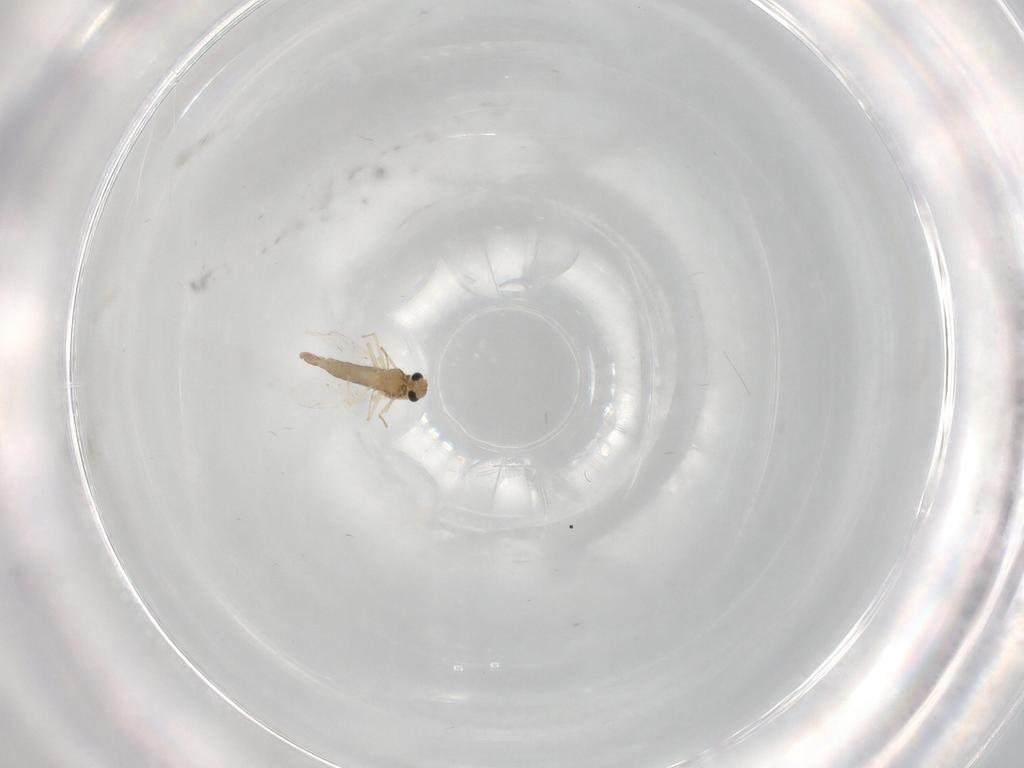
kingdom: Animalia
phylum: Arthropoda
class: Insecta
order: Diptera
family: Chironomidae
